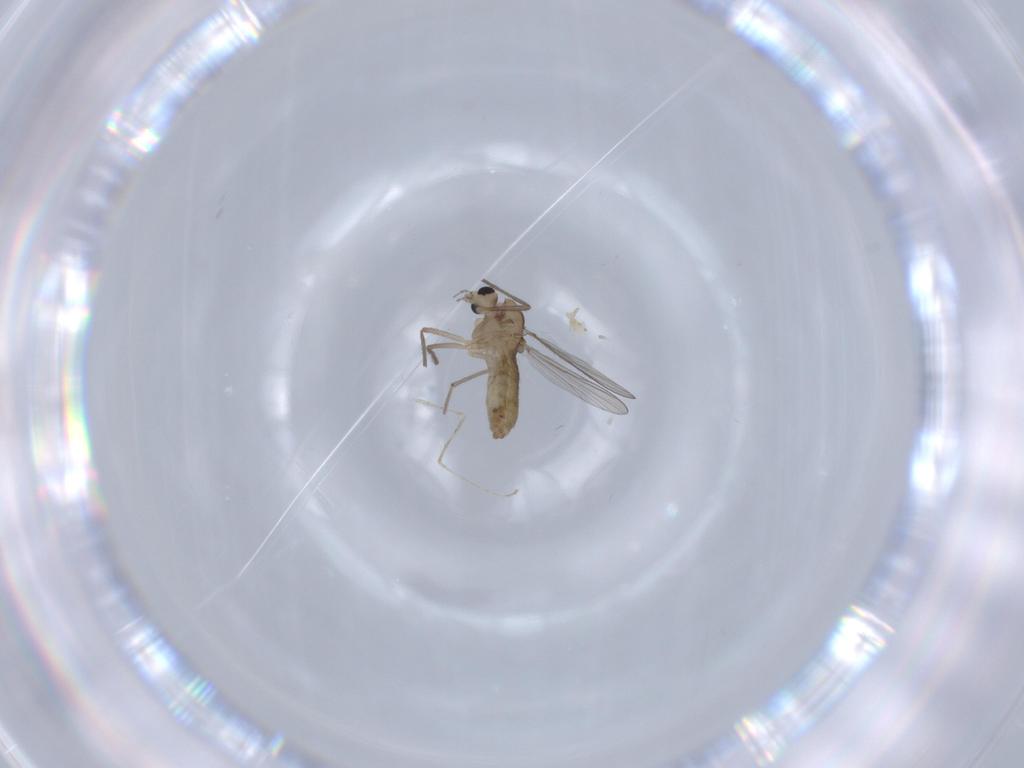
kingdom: Animalia
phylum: Arthropoda
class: Insecta
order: Diptera
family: Chironomidae
